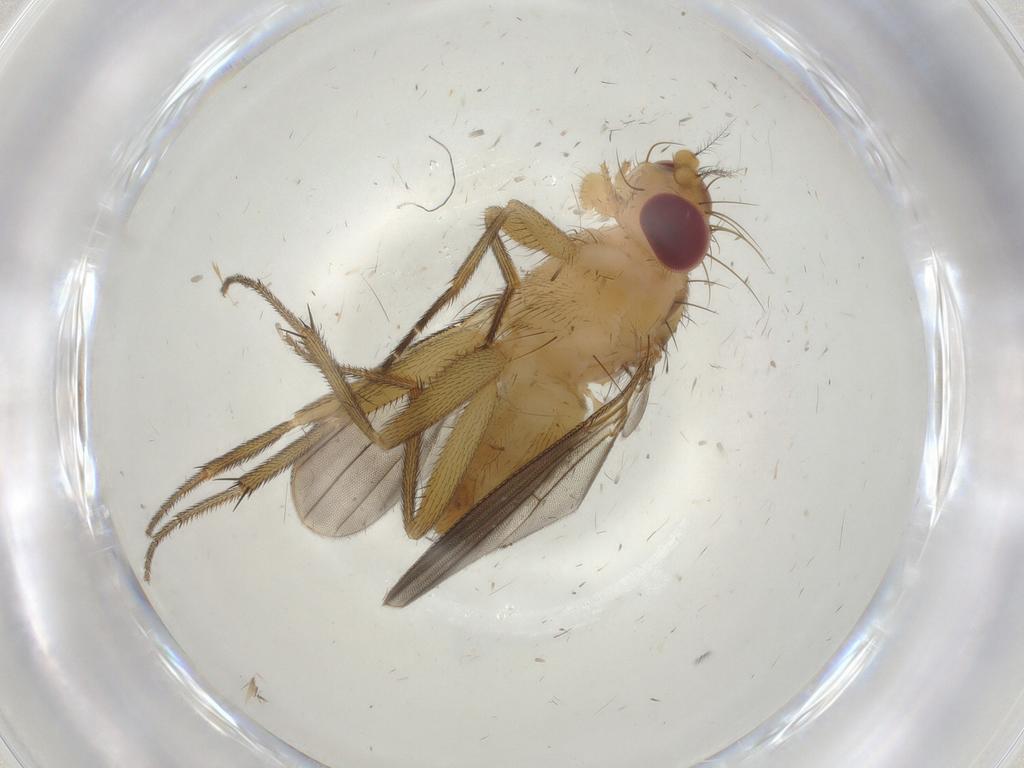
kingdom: Animalia
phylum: Arthropoda
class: Insecta
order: Diptera
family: Clusiidae
